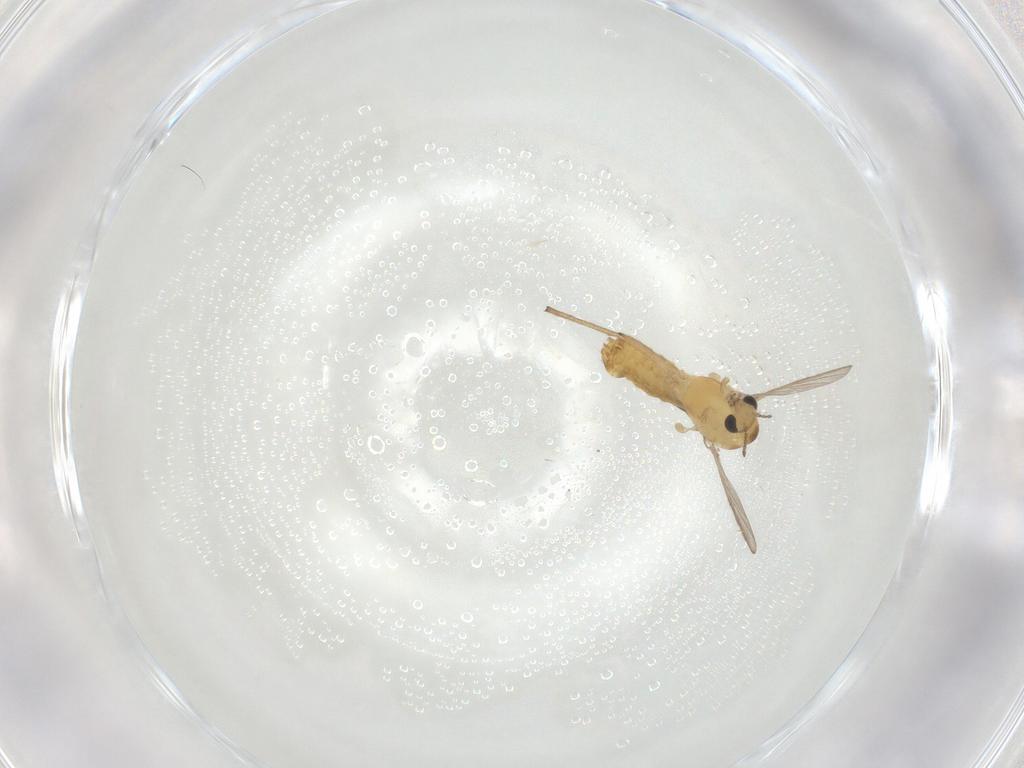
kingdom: Animalia
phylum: Arthropoda
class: Insecta
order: Diptera
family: Chironomidae
